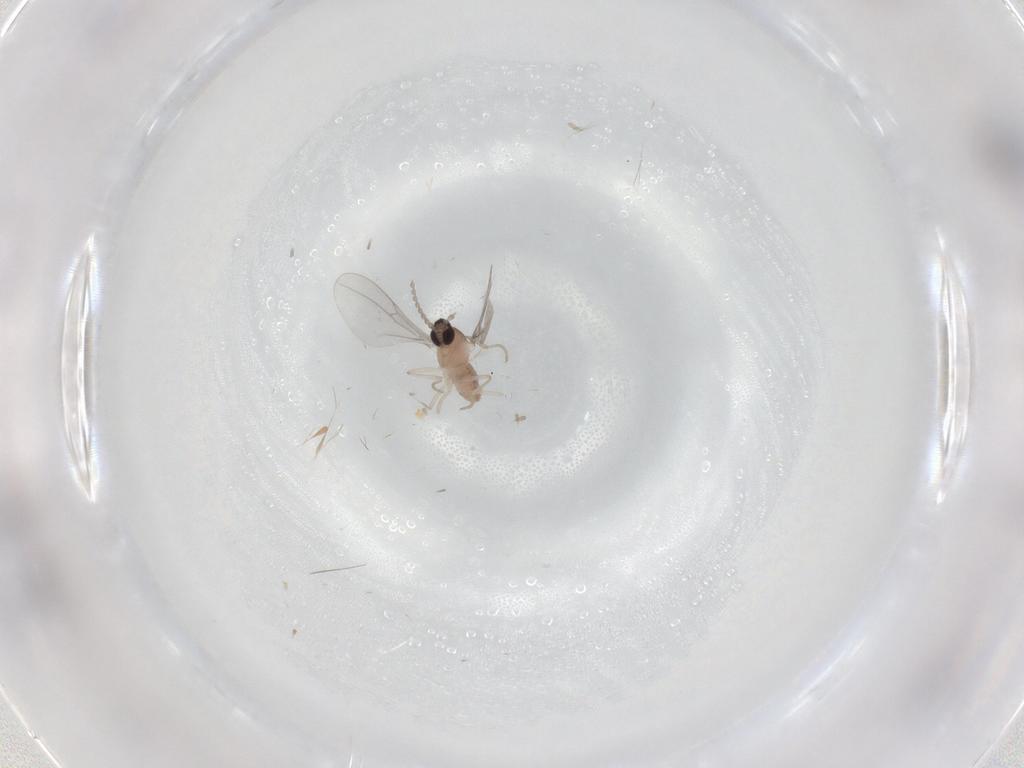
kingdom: Animalia
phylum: Arthropoda
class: Insecta
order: Diptera
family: Cecidomyiidae
